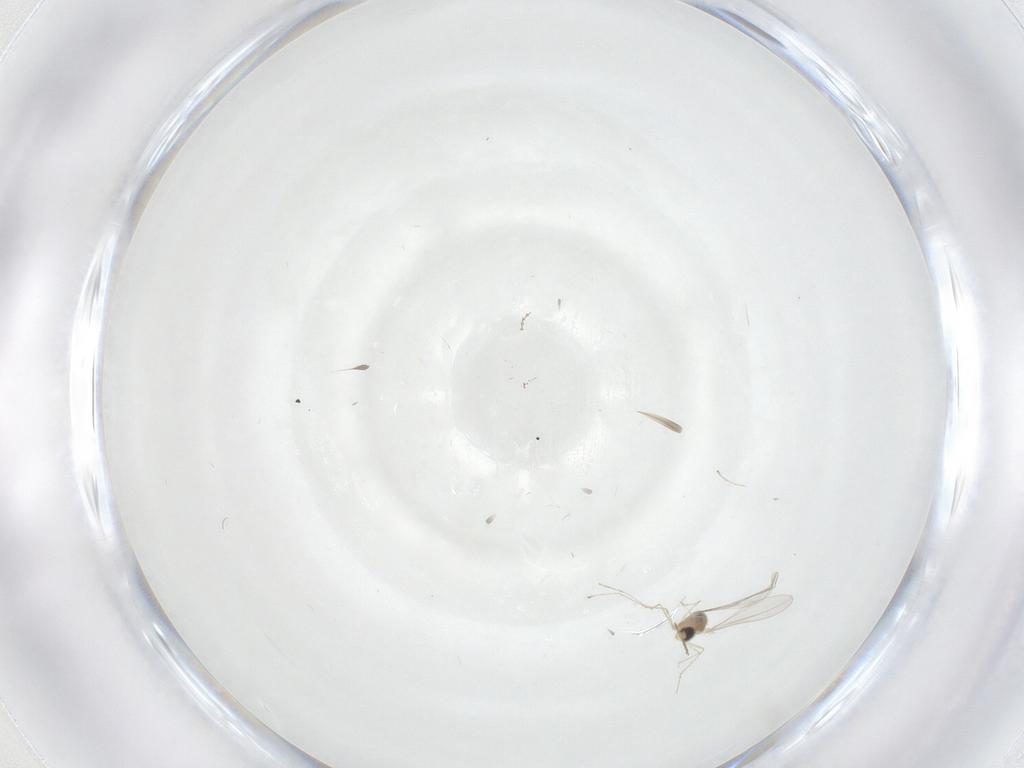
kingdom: Animalia
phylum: Arthropoda
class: Insecta
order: Diptera
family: Cecidomyiidae
